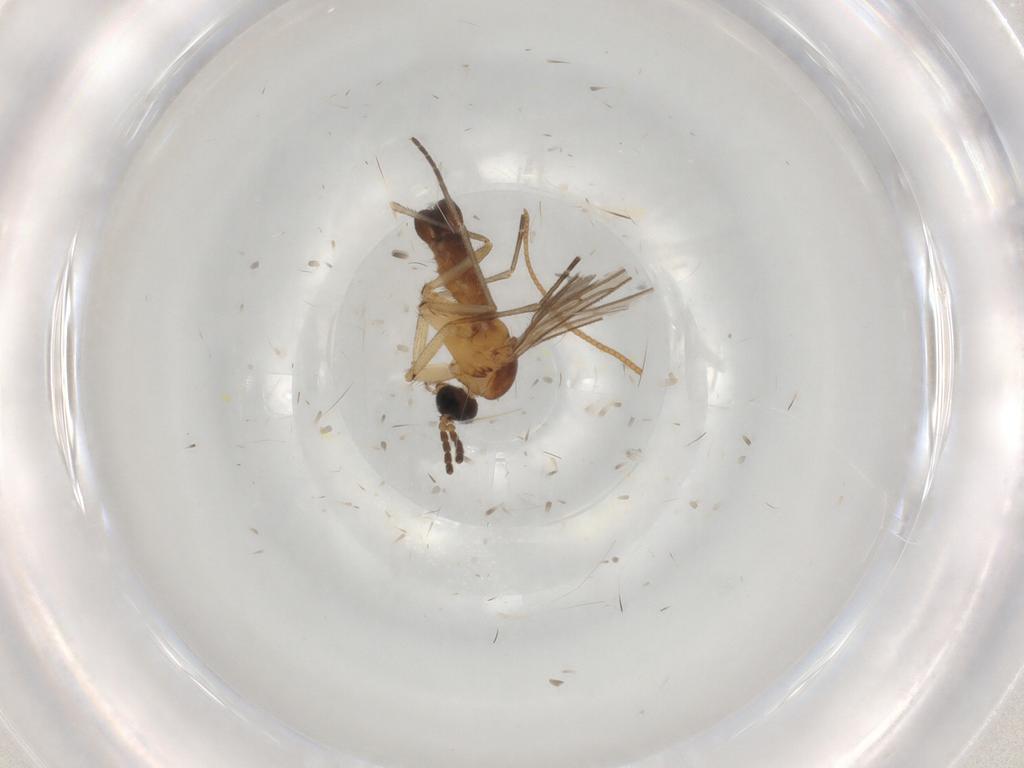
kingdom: Animalia
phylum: Arthropoda
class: Insecta
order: Diptera
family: Sciaridae
